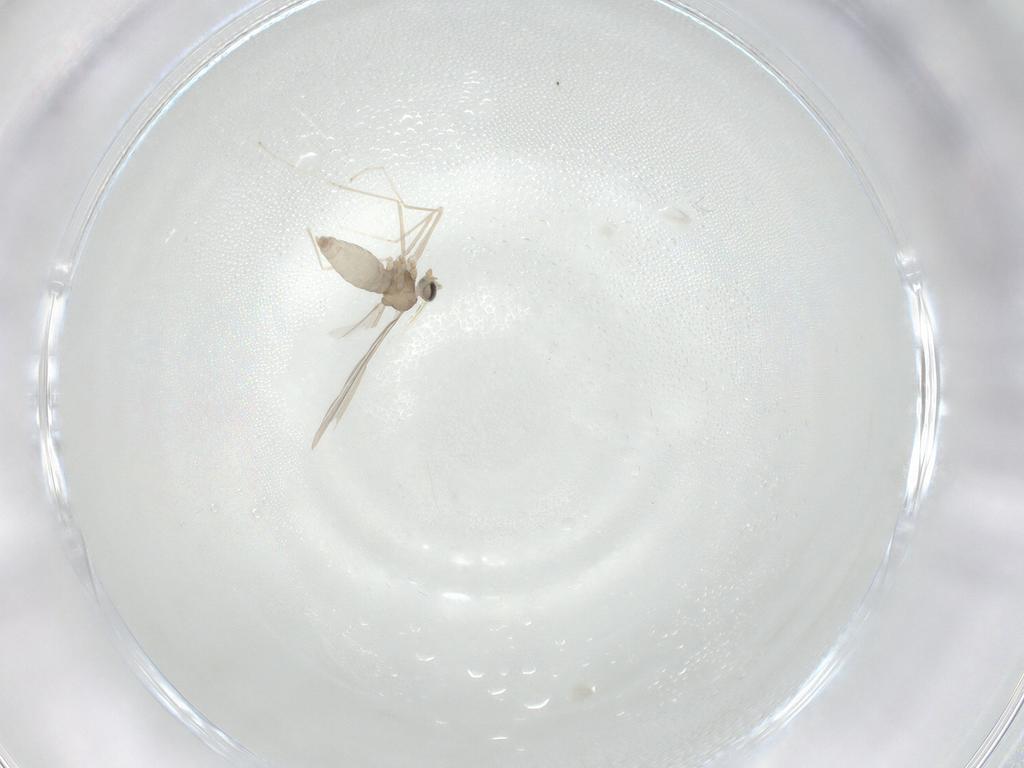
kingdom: Animalia
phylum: Arthropoda
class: Insecta
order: Diptera
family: Cecidomyiidae
